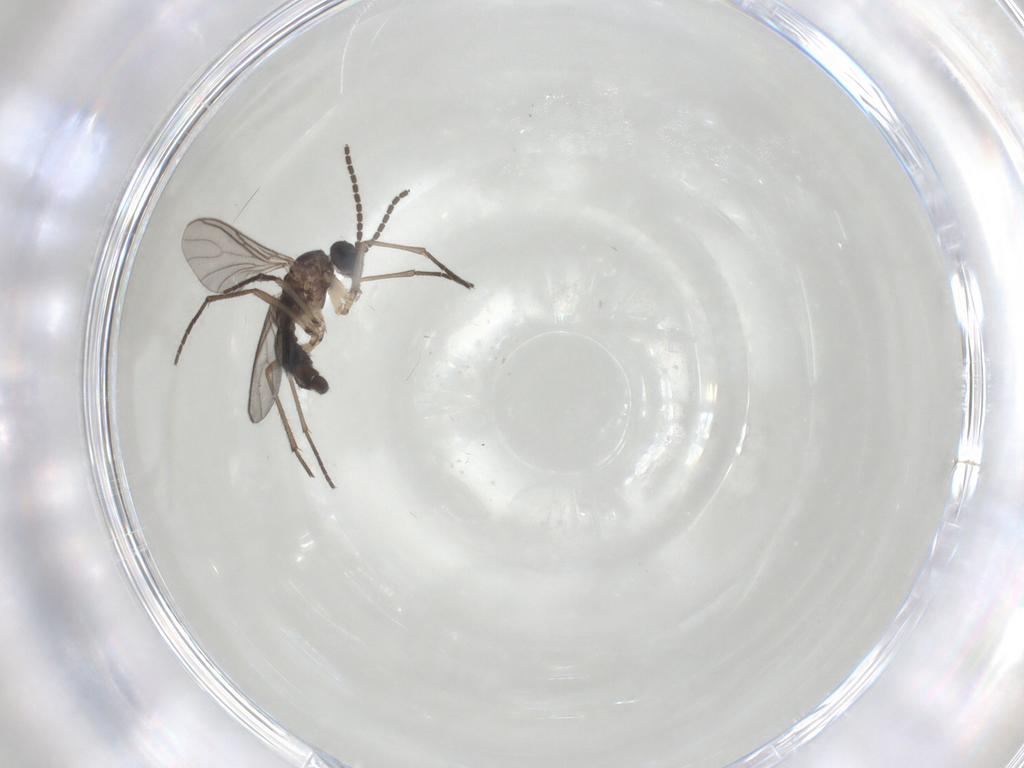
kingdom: Animalia
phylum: Arthropoda
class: Insecta
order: Diptera
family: Sciaridae
